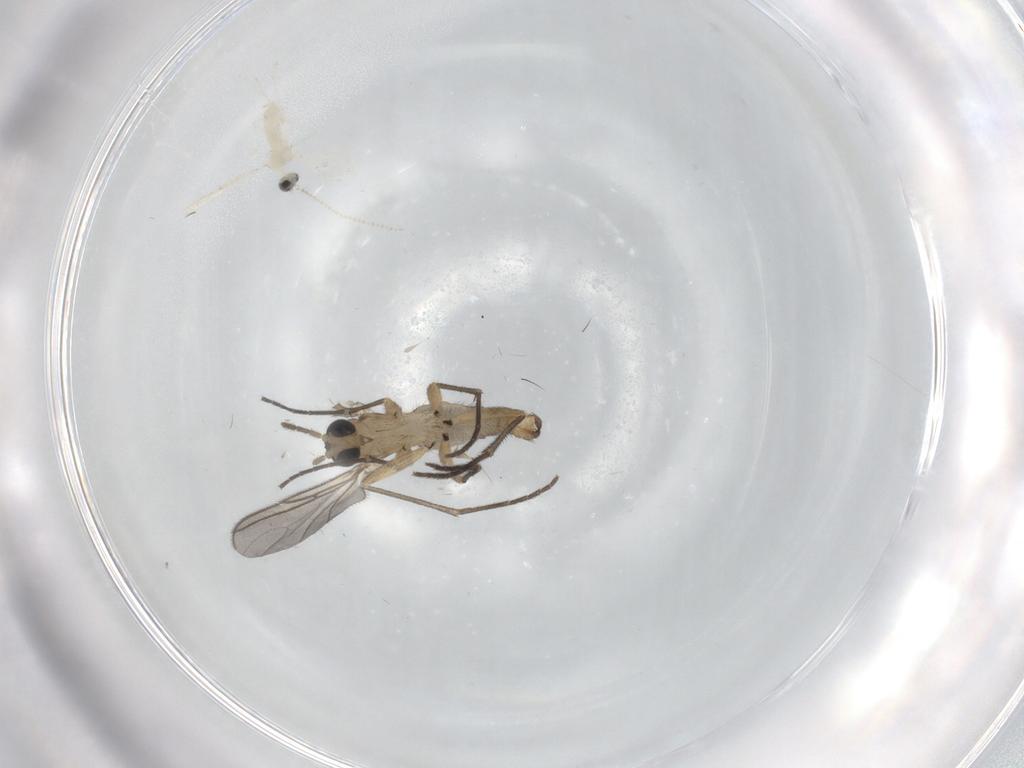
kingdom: Animalia
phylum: Arthropoda
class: Insecta
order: Diptera
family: Sciaridae
